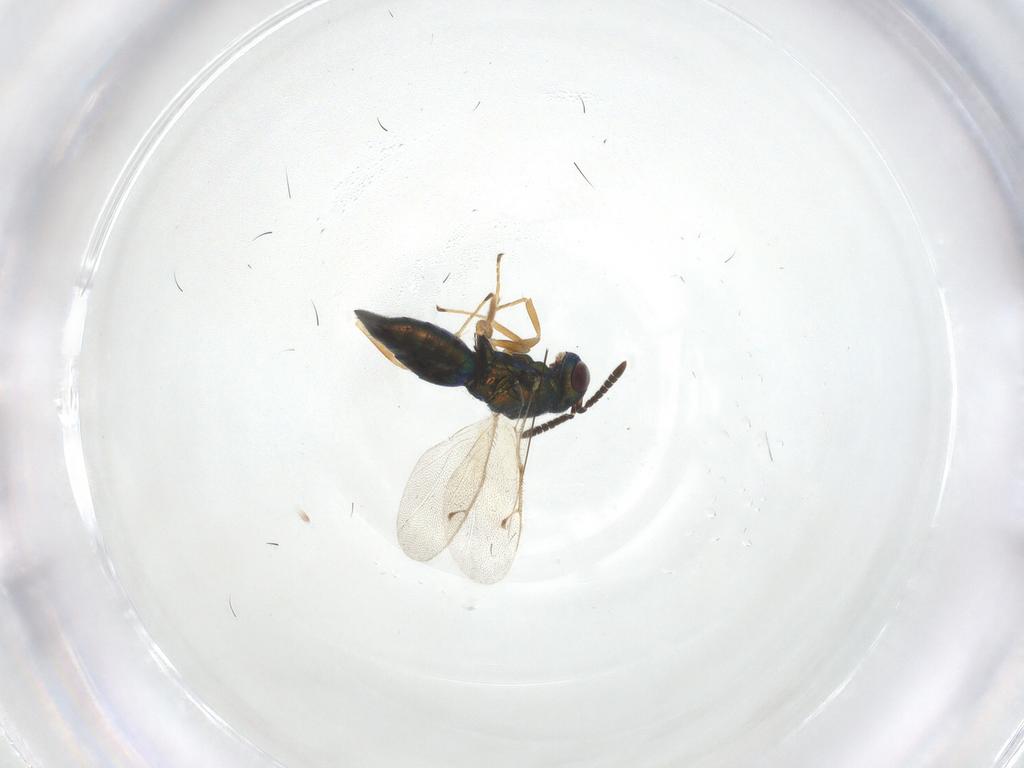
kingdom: Animalia
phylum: Arthropoda
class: Insecta
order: Hymenoptera
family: Pteromalidae
